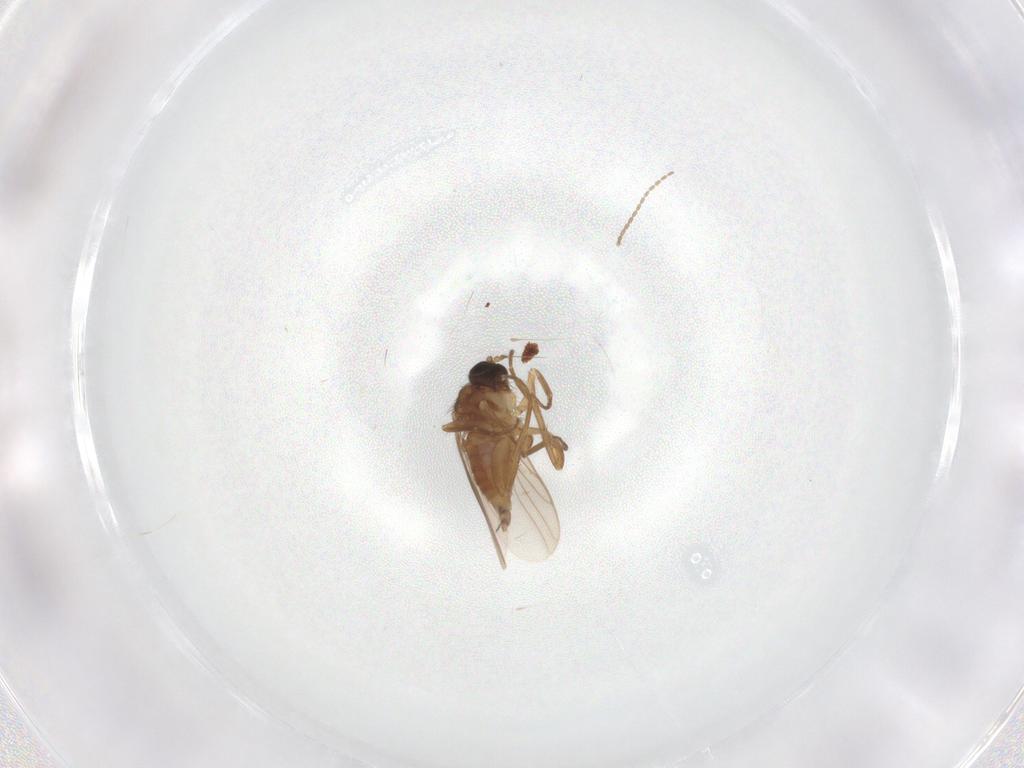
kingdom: Animalia
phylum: Arthropoda
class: Insecta
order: Diptera
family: Hybotidae
